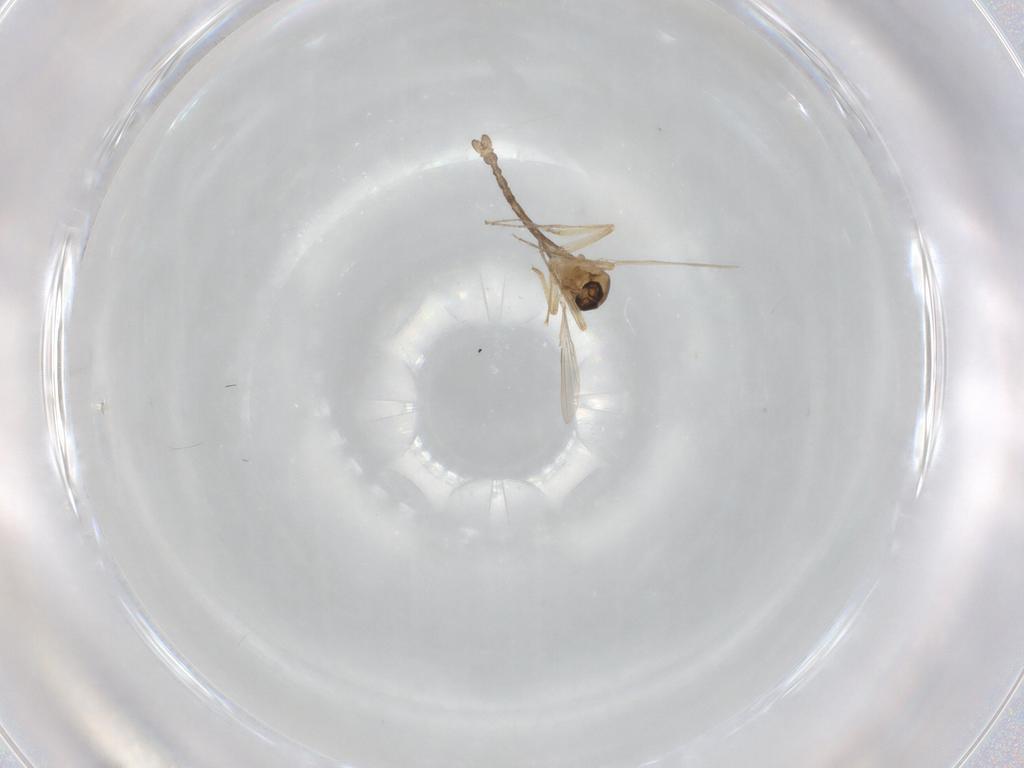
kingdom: Animalia
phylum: Arthropoda
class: Insecta
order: Diptera
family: Ceratopogonidae
